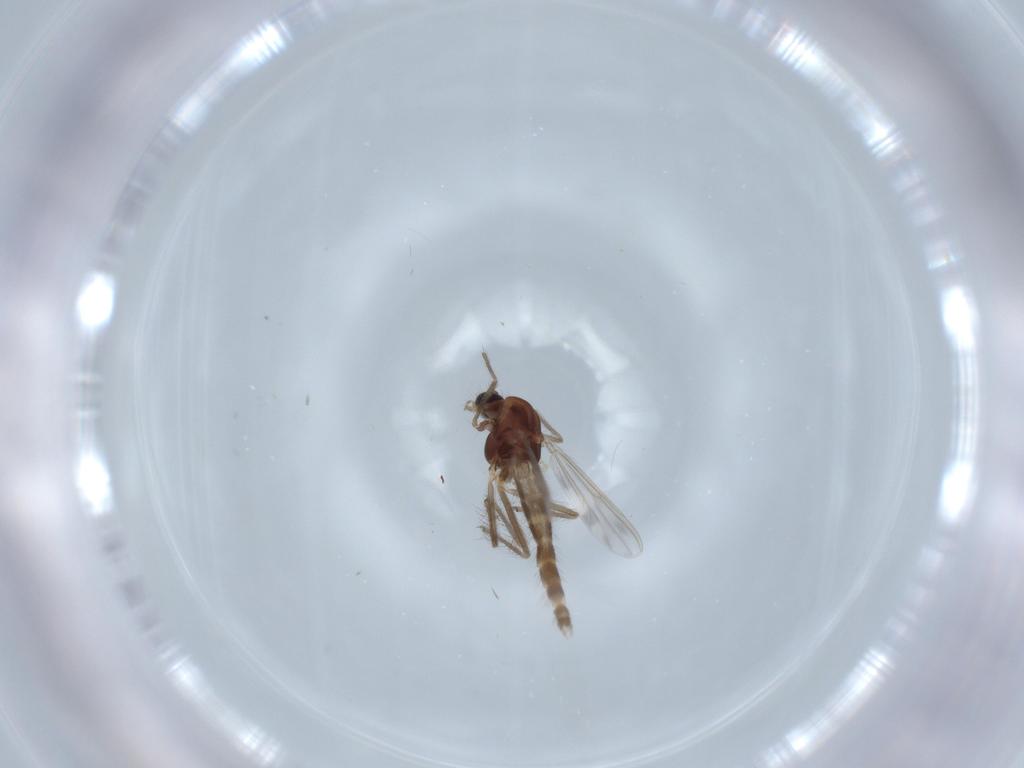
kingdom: Animalia
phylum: Arthropoda
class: Insecta
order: Diptera
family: Chironomidae
